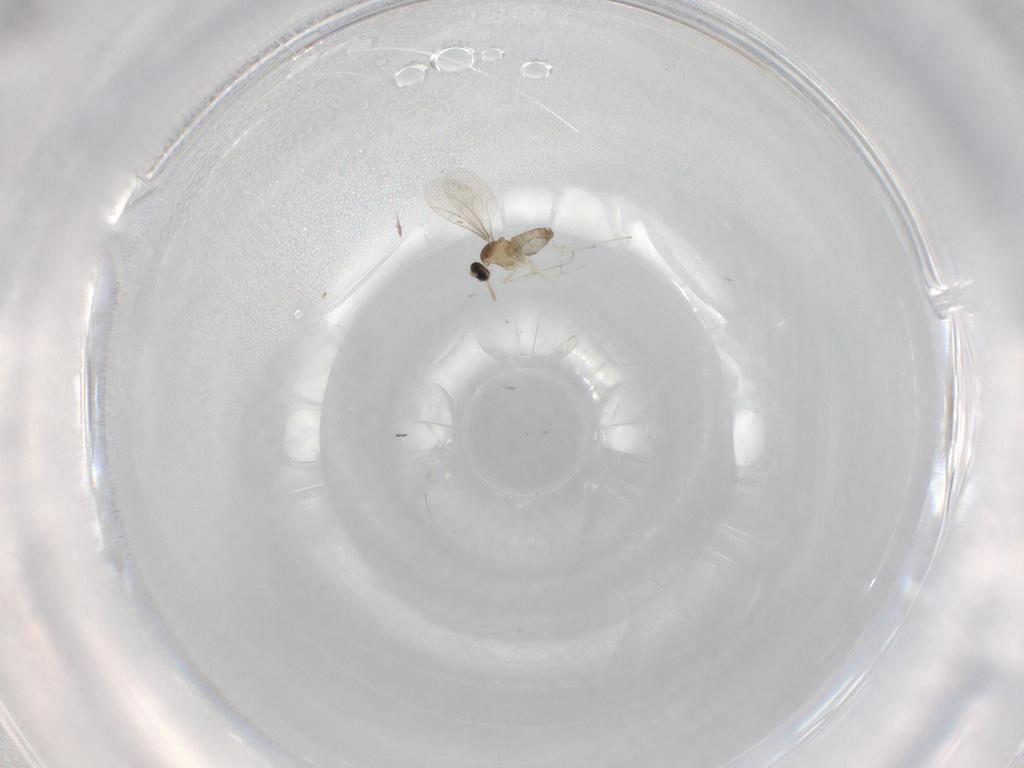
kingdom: Animalia
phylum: Arthropoda
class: Insecta
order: Diptera
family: Cecidomyiidae
